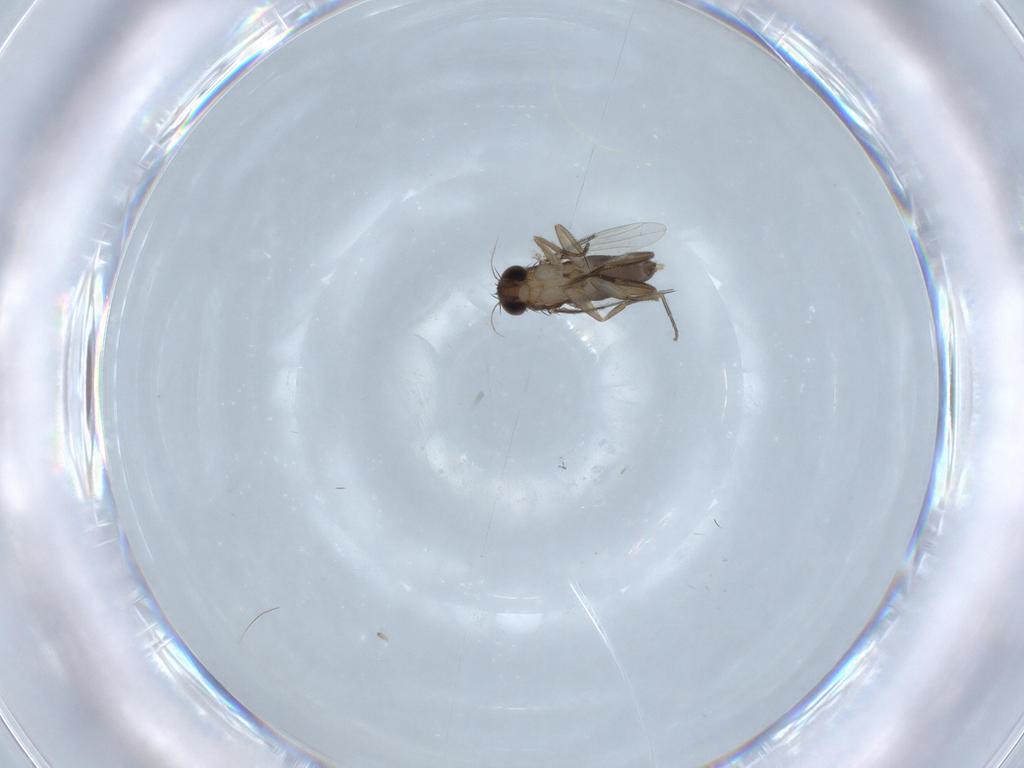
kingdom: Animalia
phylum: Arthropoda
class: Insecta
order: Diptera
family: Phoridae
